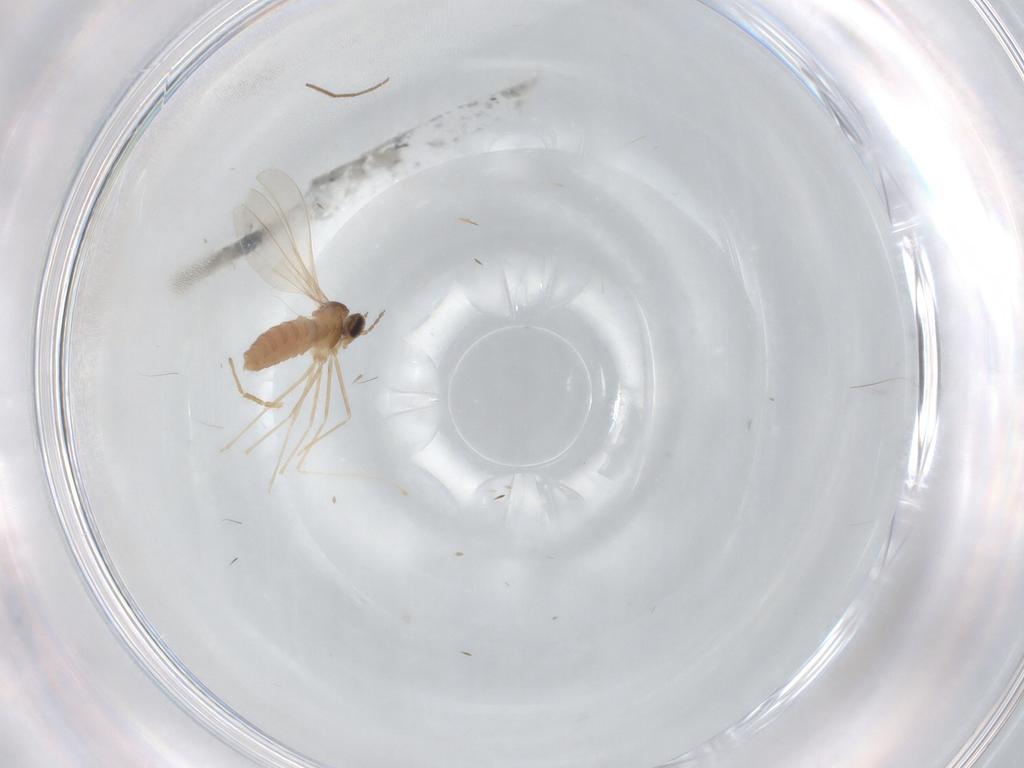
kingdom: Animalia
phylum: Arthropoda
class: Insecta
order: Diptera
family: Cecidomyiidae
